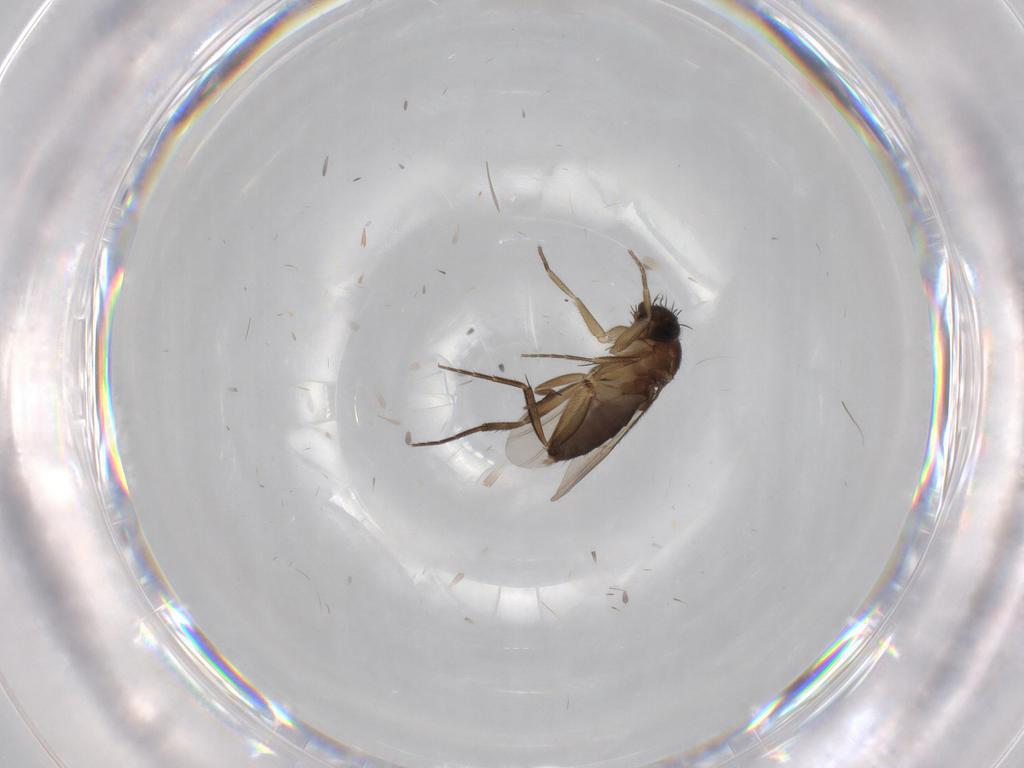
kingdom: Animalia
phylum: Arthropoda
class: Insecta
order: Diptera
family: Phoridae
